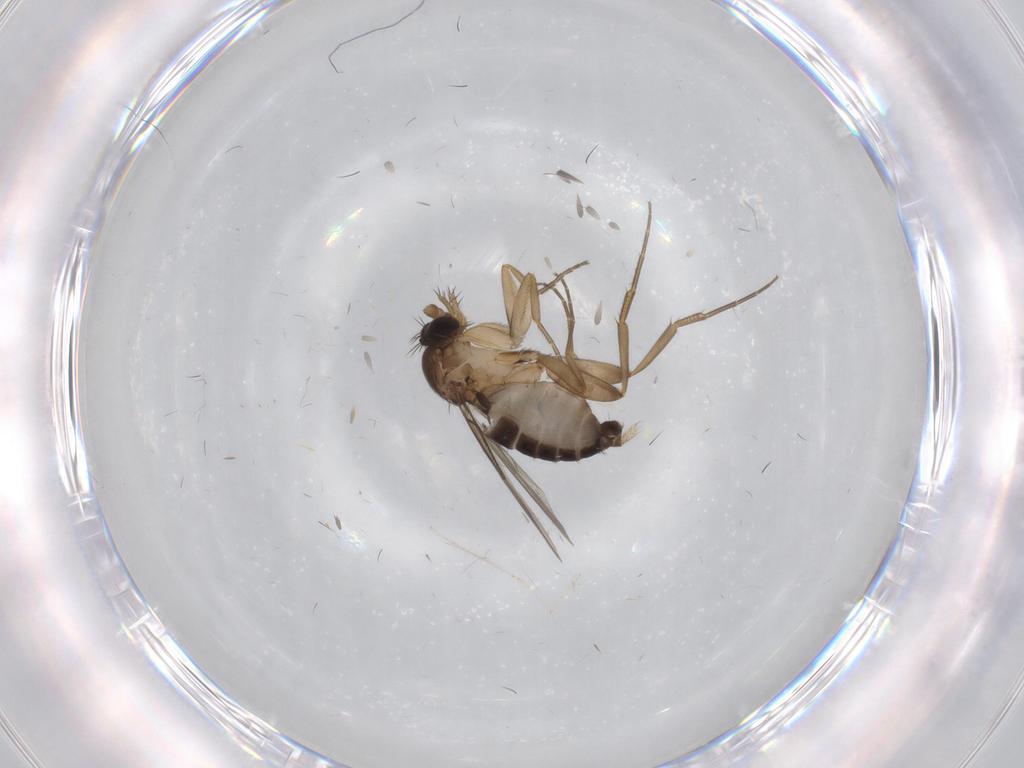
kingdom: Animalia
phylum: Arthropoda
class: Insecta
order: Diptera
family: Phoridae
